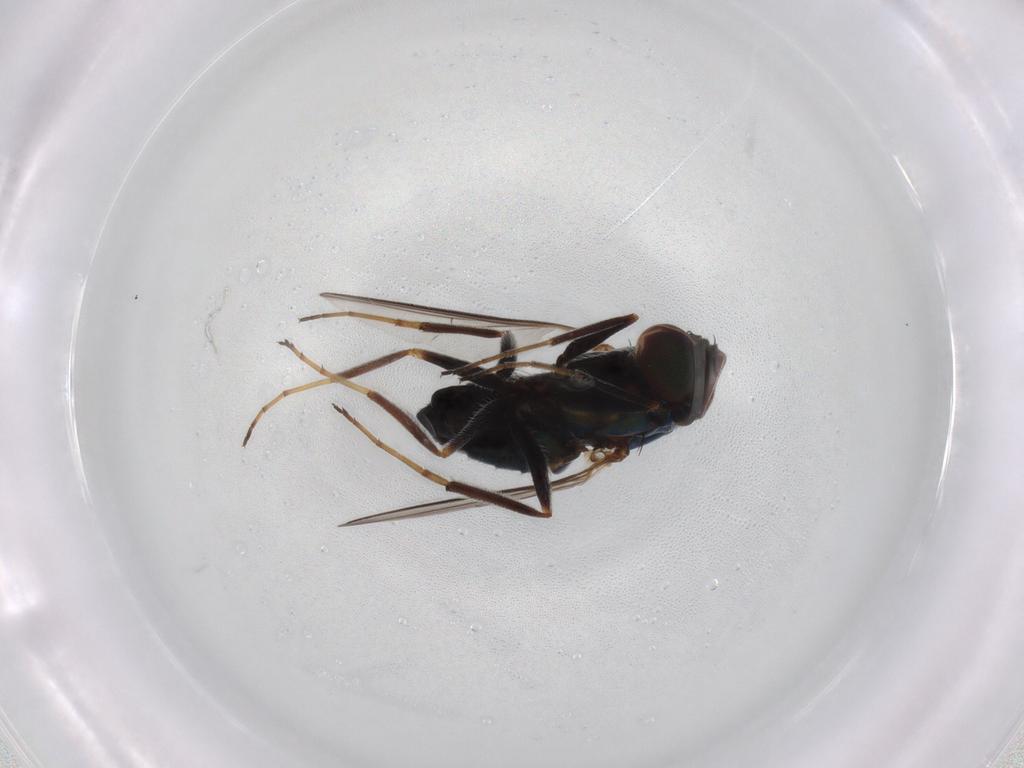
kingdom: Animalia
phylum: Arthropoda
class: Insecta
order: Diptera
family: Dolichopodidae
